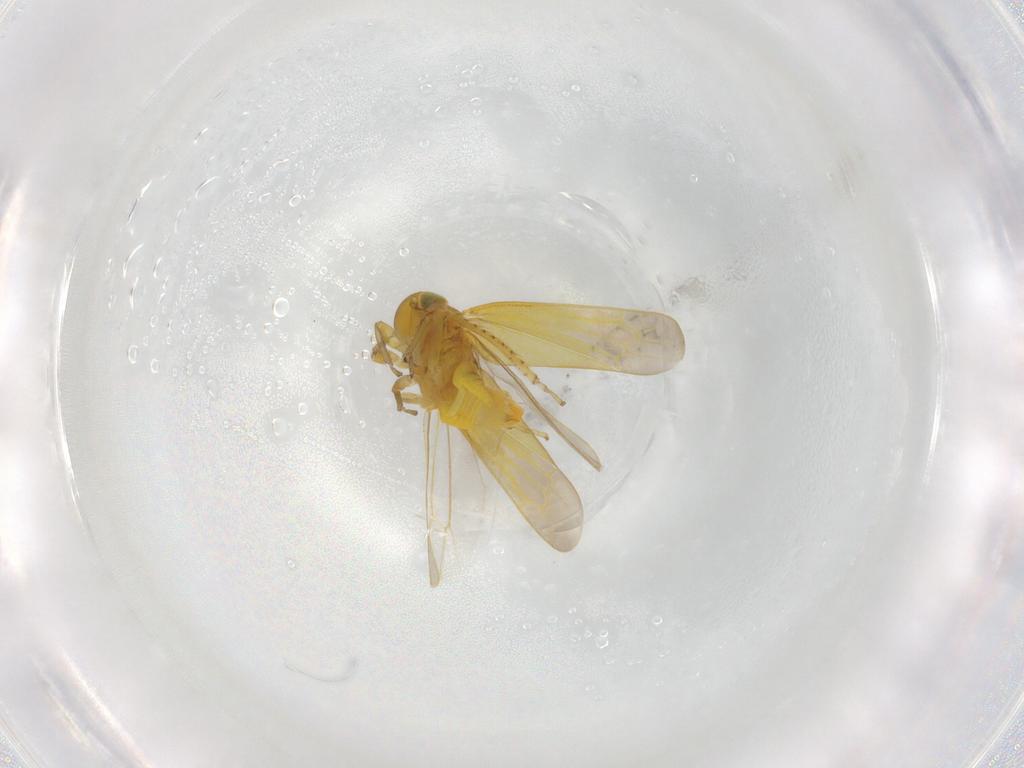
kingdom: Animalia
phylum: Arthropoda
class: Insecta
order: Hemiptera
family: Cicadellidae
